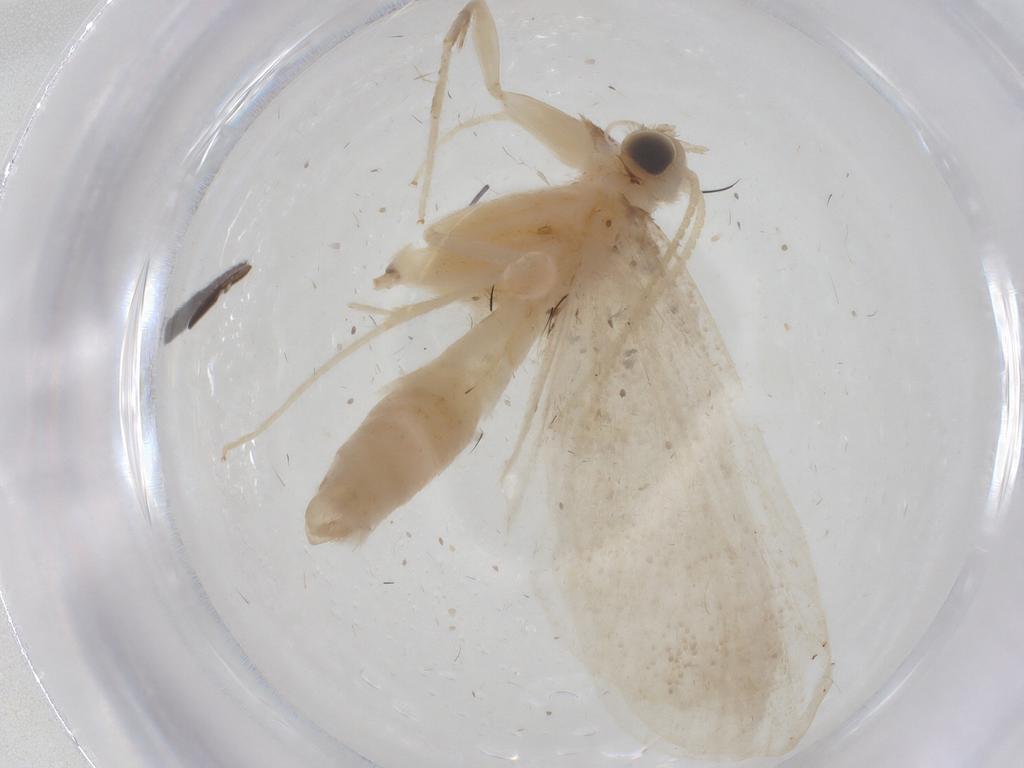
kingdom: Animalia
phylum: Arthropoda
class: Insecta
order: Lepidoptera
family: Crambidae
